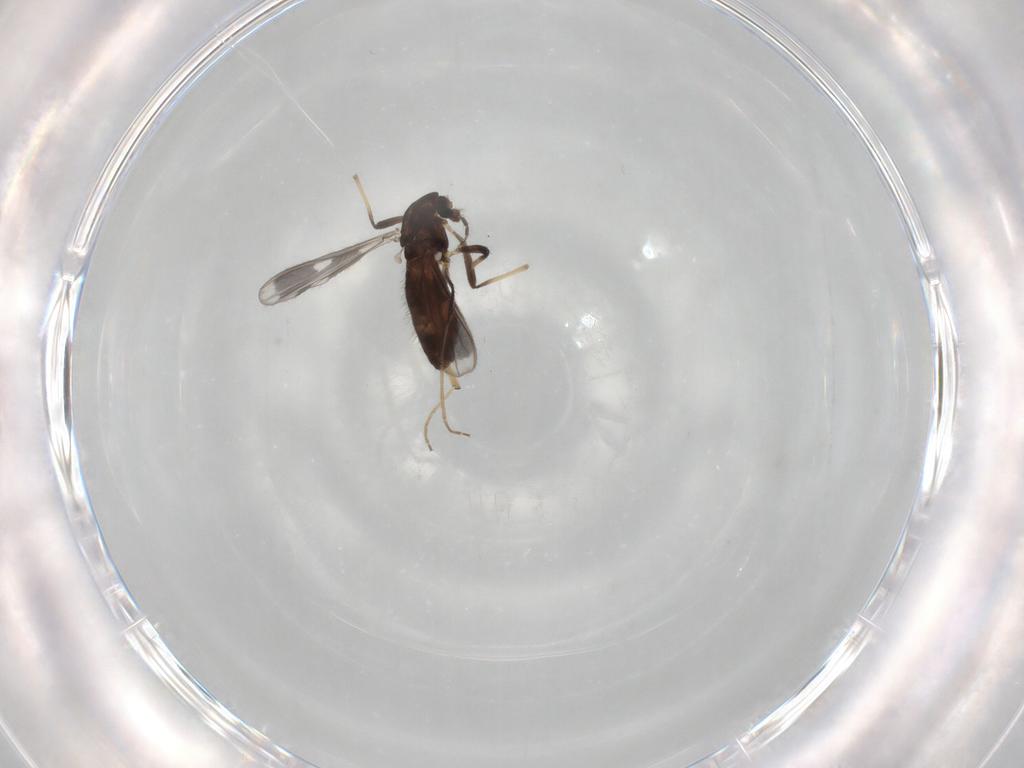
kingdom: Animalia
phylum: Arthropoda
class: Insecta
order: Diptera
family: Chironomidae
